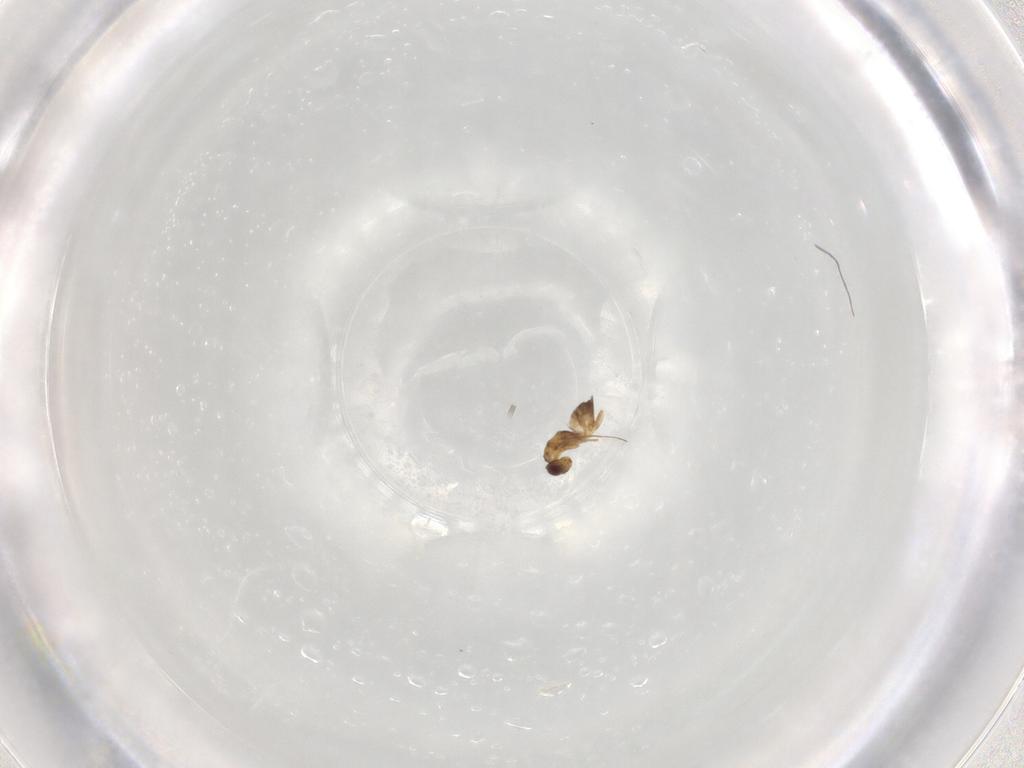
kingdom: Animalia
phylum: Arthropoda
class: Insecta
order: Hymenoptera
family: Mymaridae
